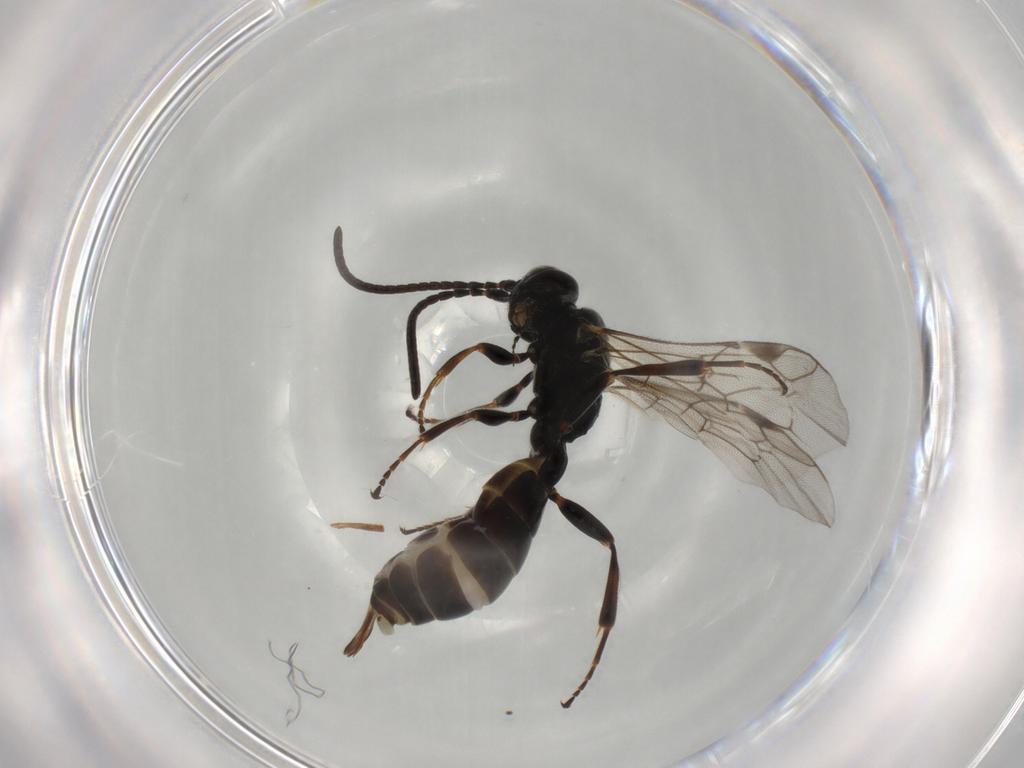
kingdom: Animalia
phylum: Arthropoda
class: Insecta
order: Hymenoptera
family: Ichneumonidae
